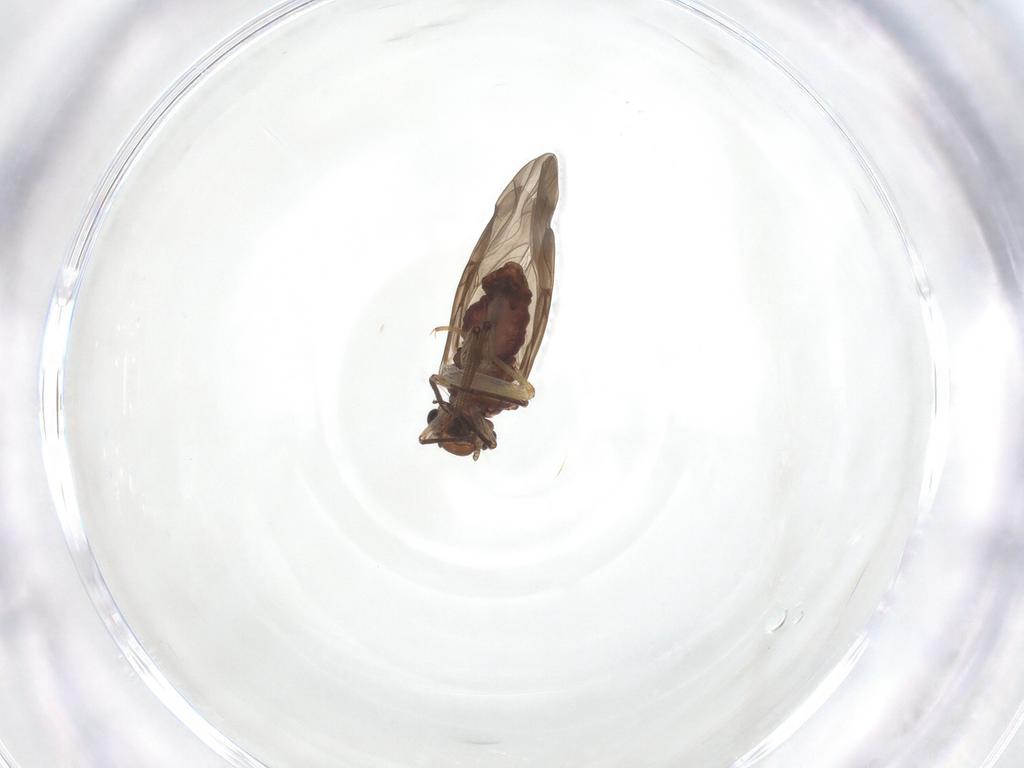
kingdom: Animalia
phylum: Arthropoda
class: Insecta
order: Psocodea
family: Peripsocidae
